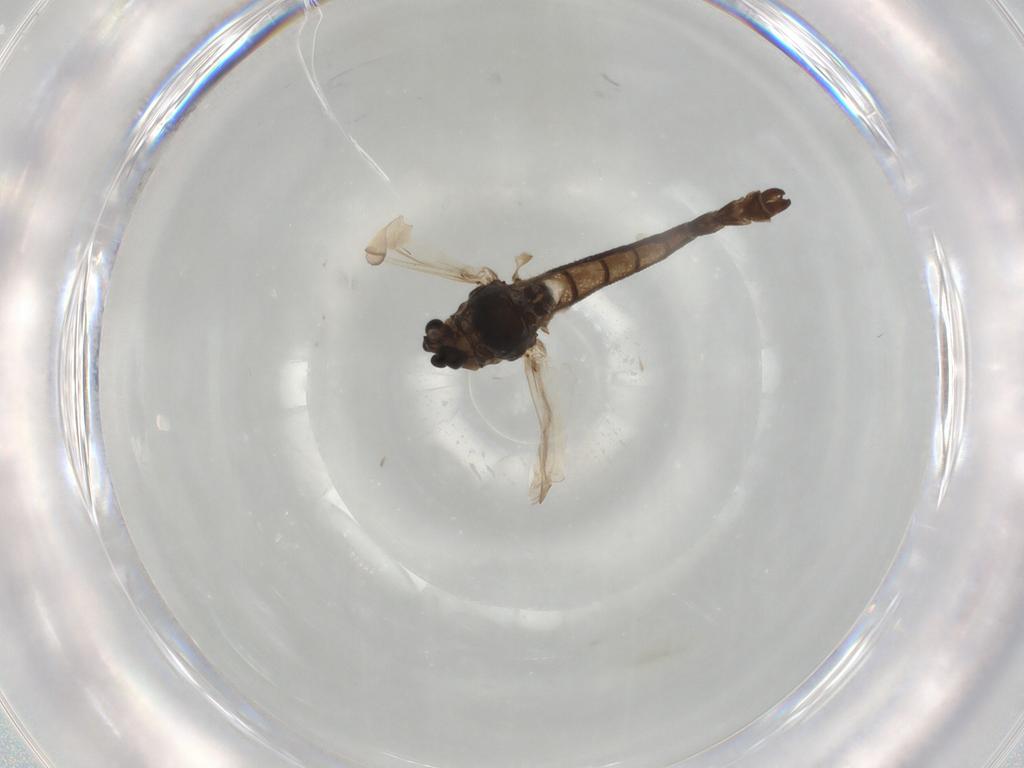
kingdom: Animalia
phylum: Arthropoda
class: Insecta
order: Diptera
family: Chironomidae
